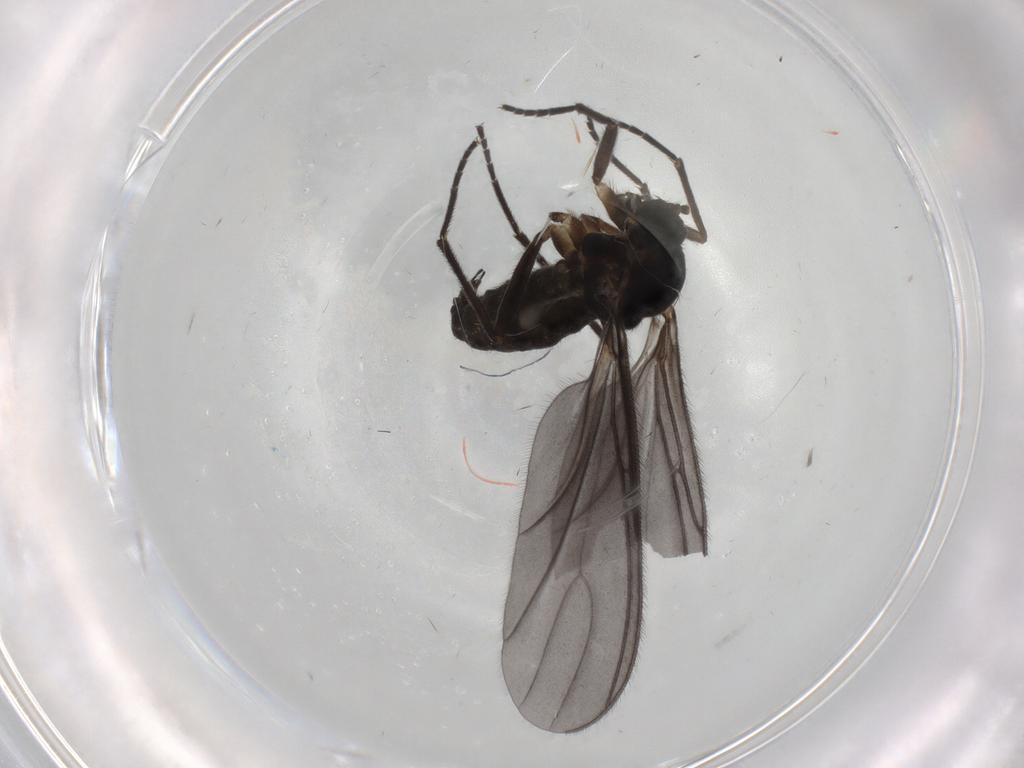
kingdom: Animalia
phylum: Arthropoda
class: Insecta
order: Diptera
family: Sciaridae
